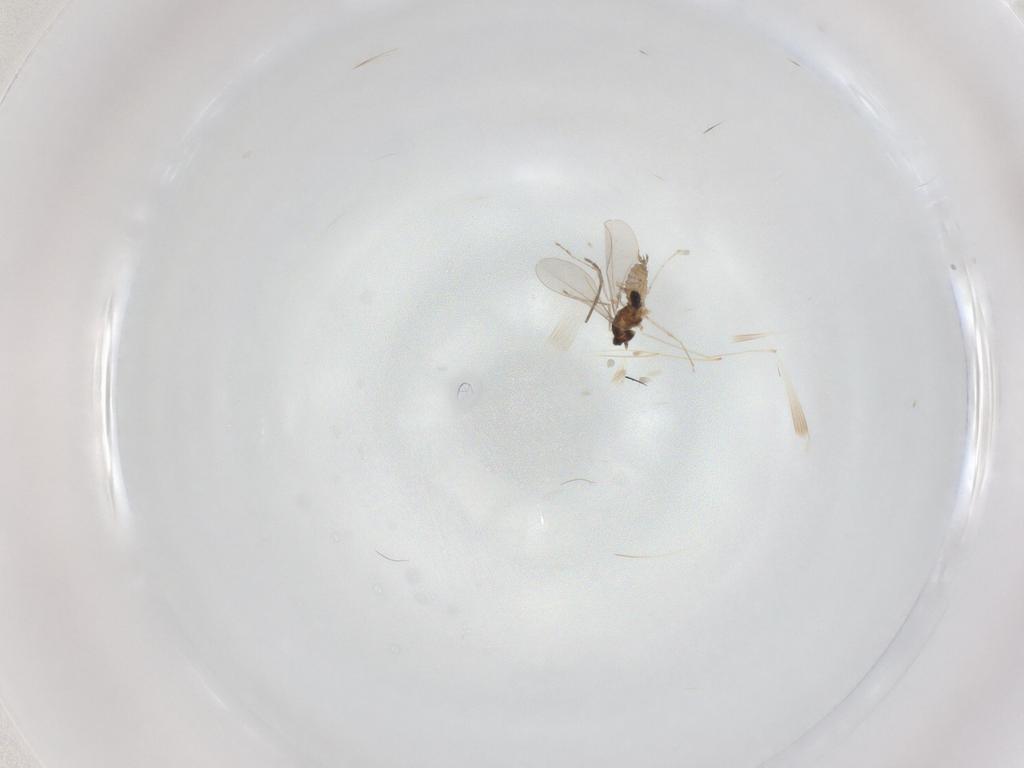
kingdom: Animalia
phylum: Arthropoda
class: Insecta
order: Diptera
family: Chironomidae
